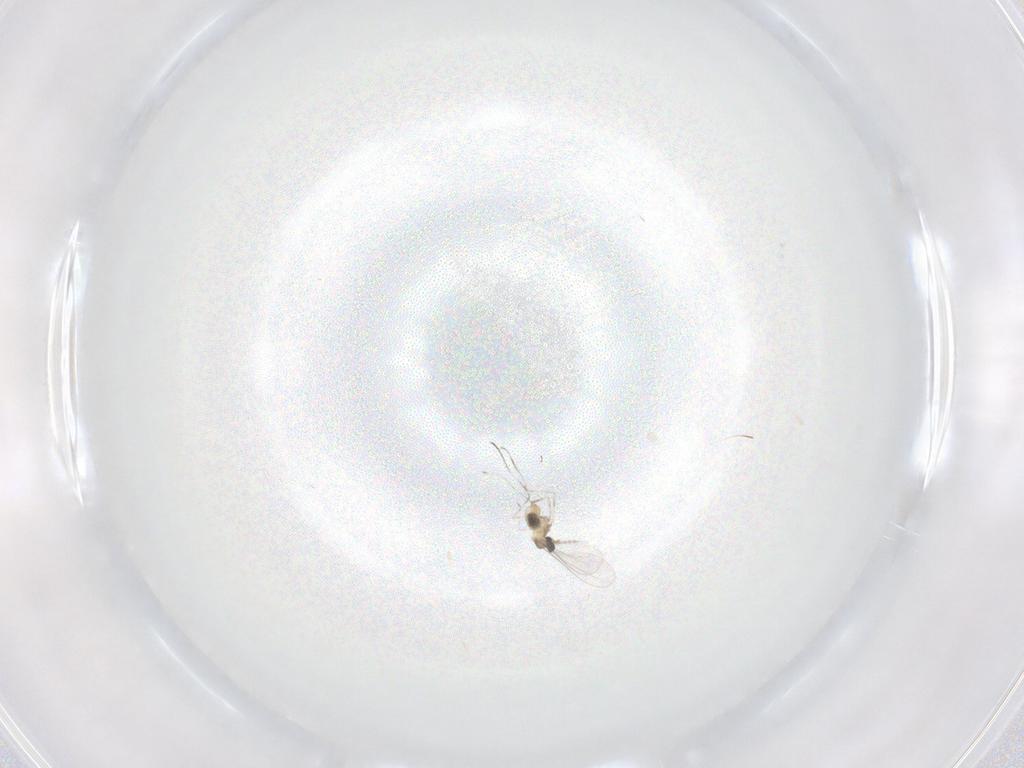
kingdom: Animalia
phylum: Arthropoda
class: Insecta
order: Diptera
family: Cecidomyiidae
